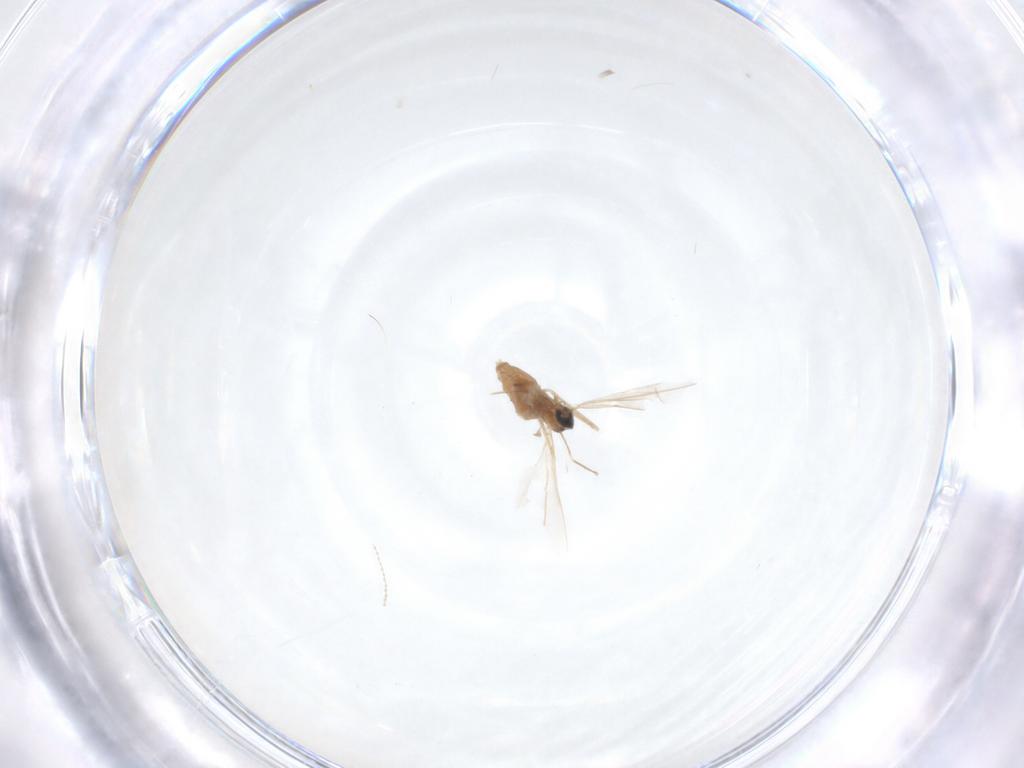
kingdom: Animalia
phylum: Arthropoda
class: Insecta
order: Diptera
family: Cecidomyiidae
